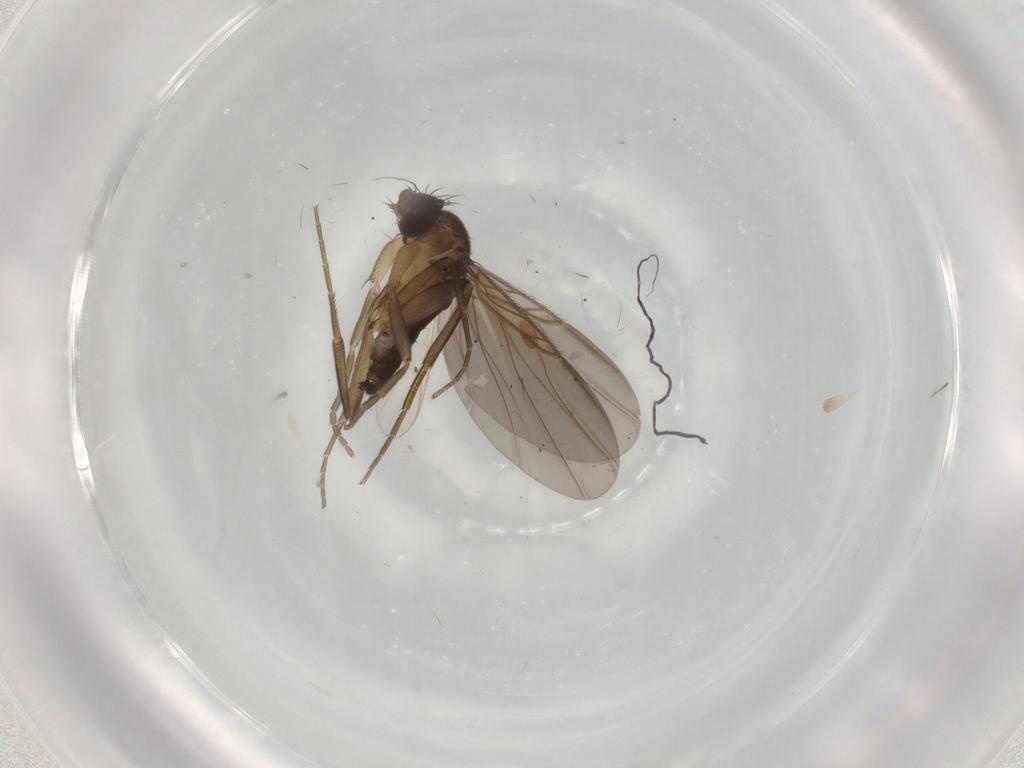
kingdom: Animalia
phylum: Arthropoda
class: Insecta
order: Diptera
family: Phoridae
